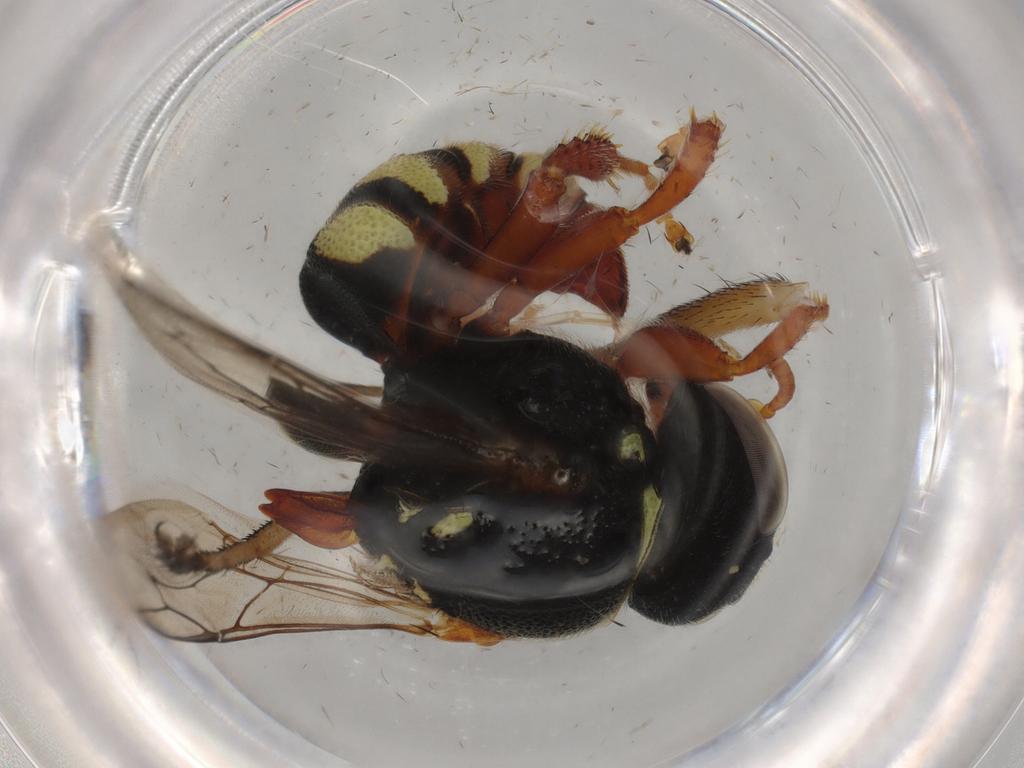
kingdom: Animalia
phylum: Arthropoda
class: Insecta
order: Hymenoptera
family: Crabronidae
